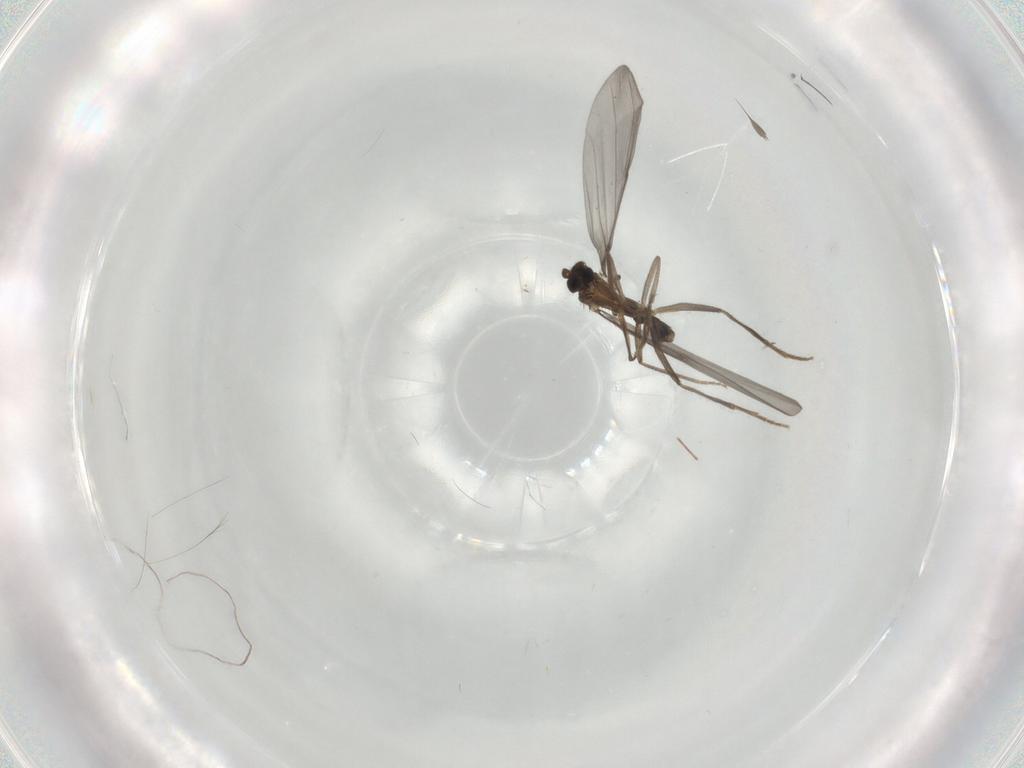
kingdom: Animalia
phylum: Arthropoda
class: Insecta
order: Diptera
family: Phoridae
